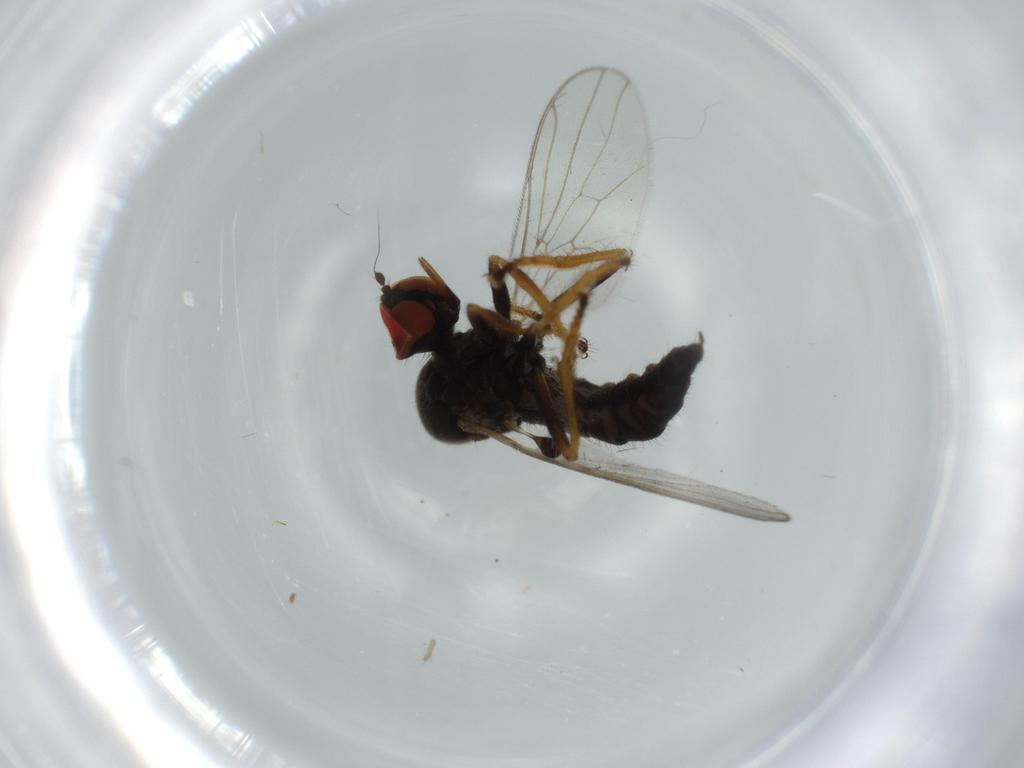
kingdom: Animalia
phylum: Arthropoda
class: Insecta
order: Diptera
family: Cecidomyiidae
